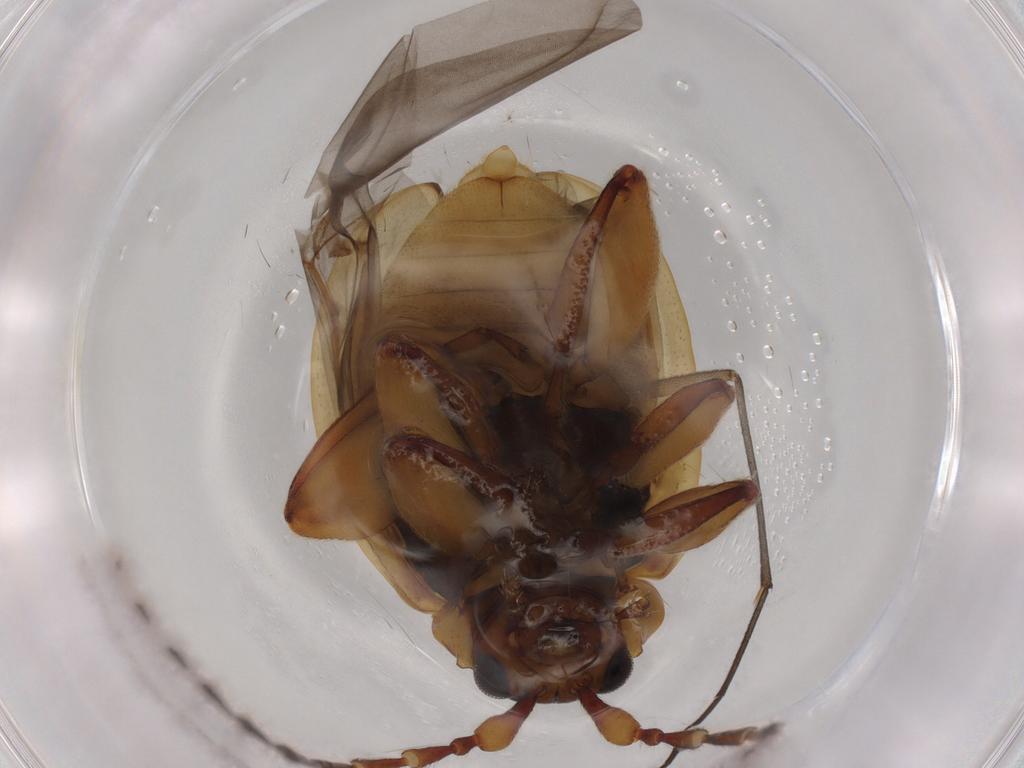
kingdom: Animalia
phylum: Arthropoda
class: Insecta
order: Coleoptera
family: Chrysomelidae
